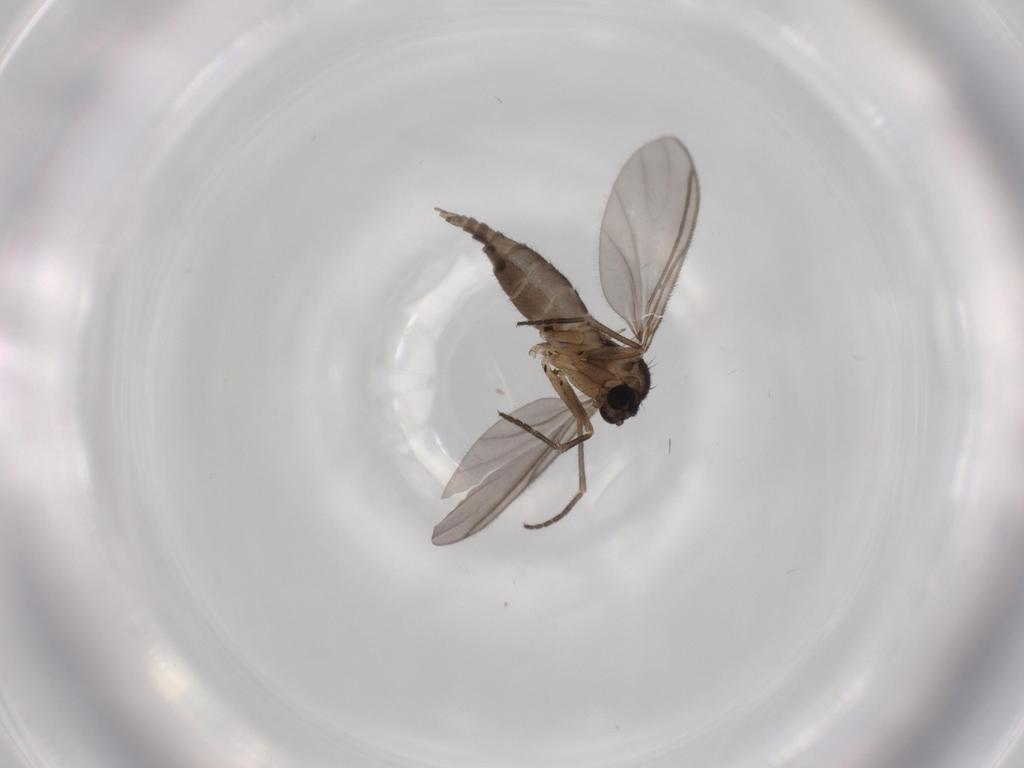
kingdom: Animalia
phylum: Arthropoda
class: Insecta
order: Diptera
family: Sciaridae
